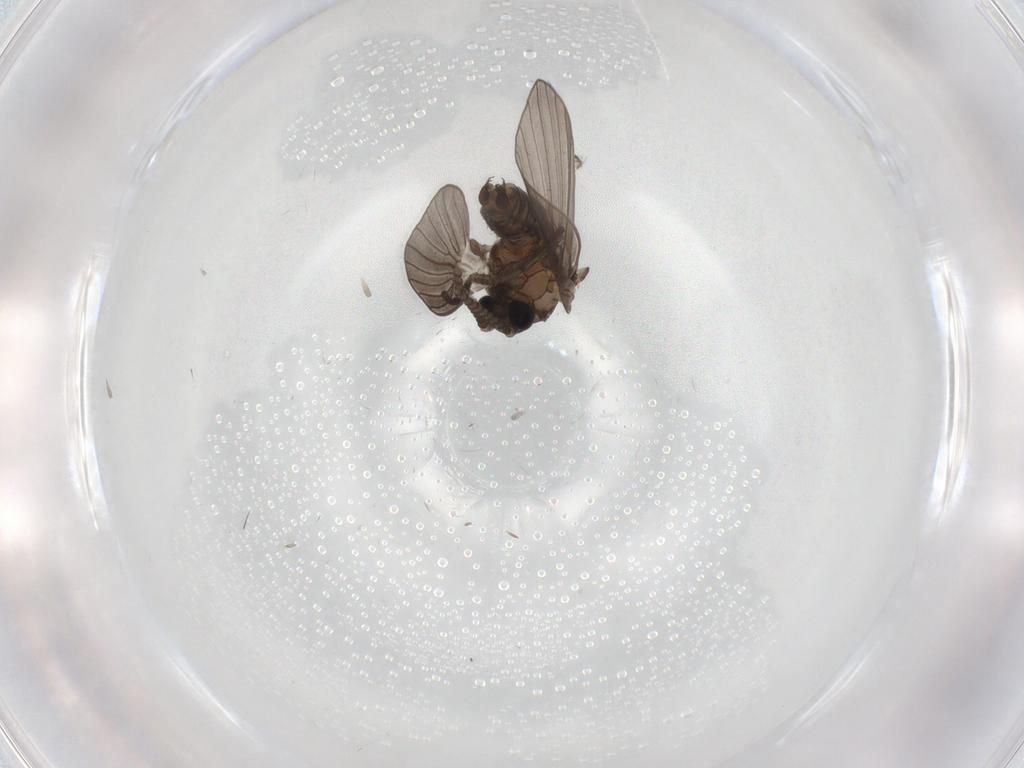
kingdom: Animalia
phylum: Arthropoda
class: Insecta
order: Diptera
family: Psychodidae
